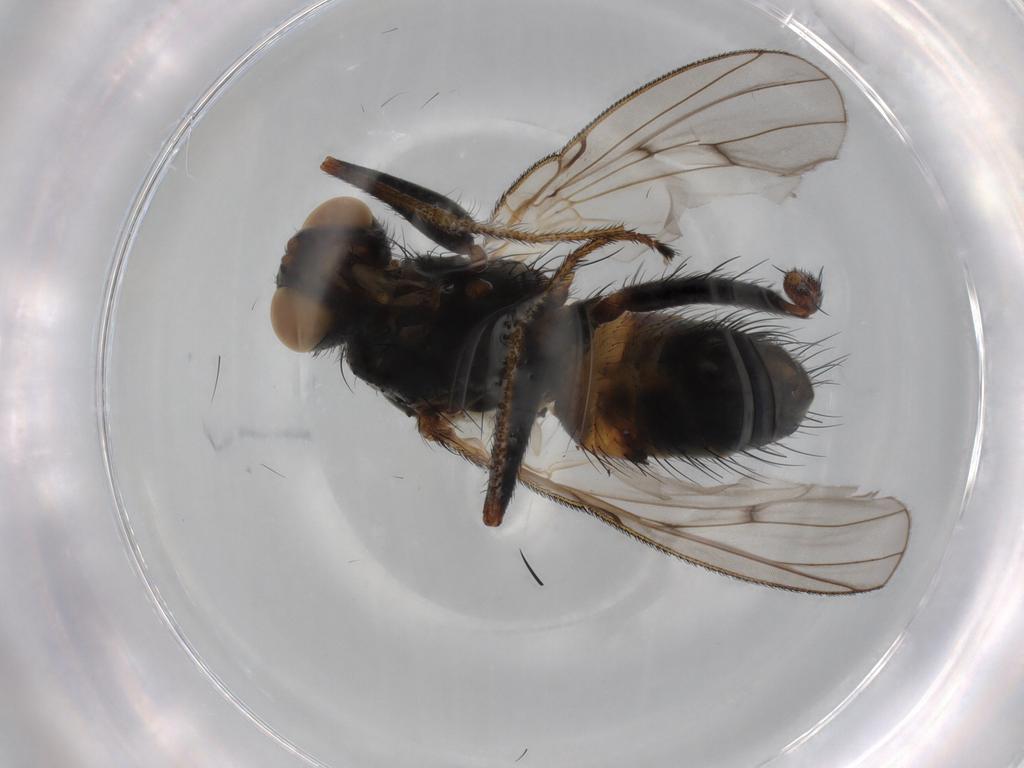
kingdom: Animalia
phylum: Arthropoda
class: Insecta
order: Diptera
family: Muscidae
